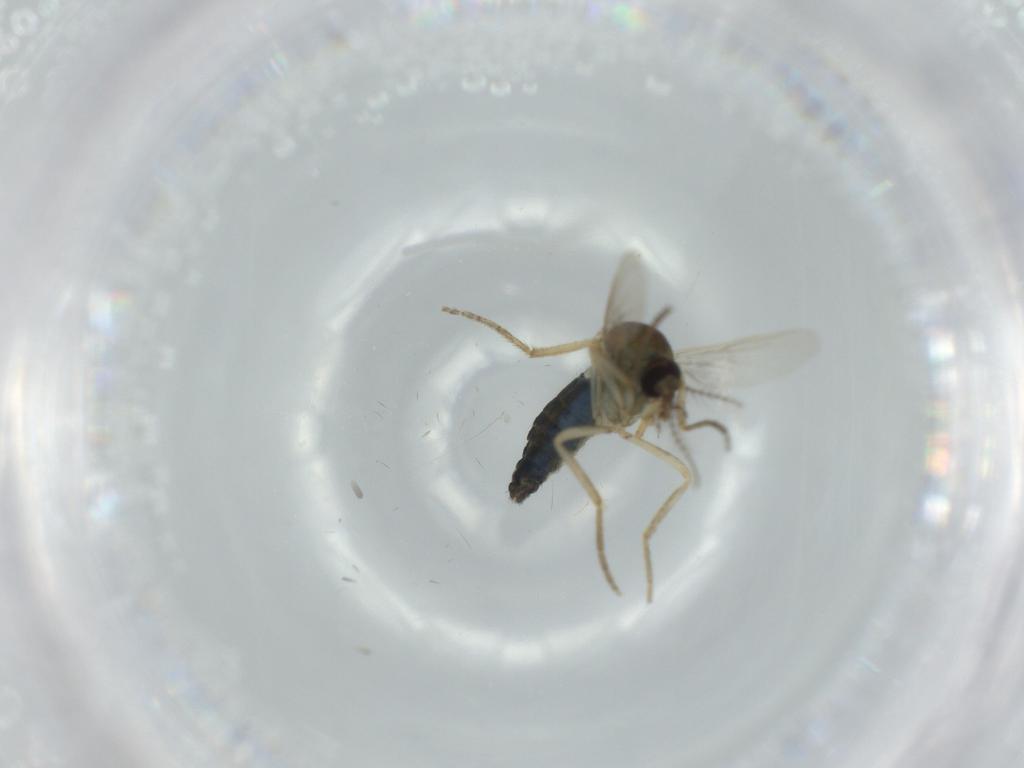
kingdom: Animalia
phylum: Arthropoda
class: Insecta
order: Diptera
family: Ceratopogonidae
